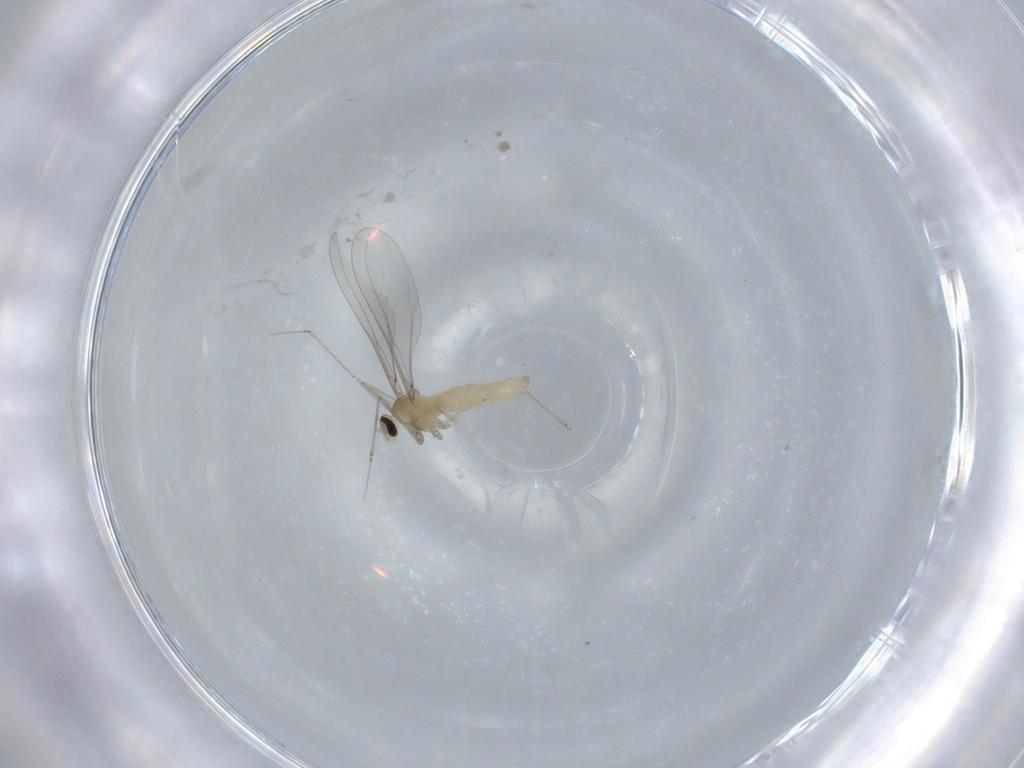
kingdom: Animalia
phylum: Arthropoda
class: Insecta
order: Diptera
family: Cecidomyiidae
